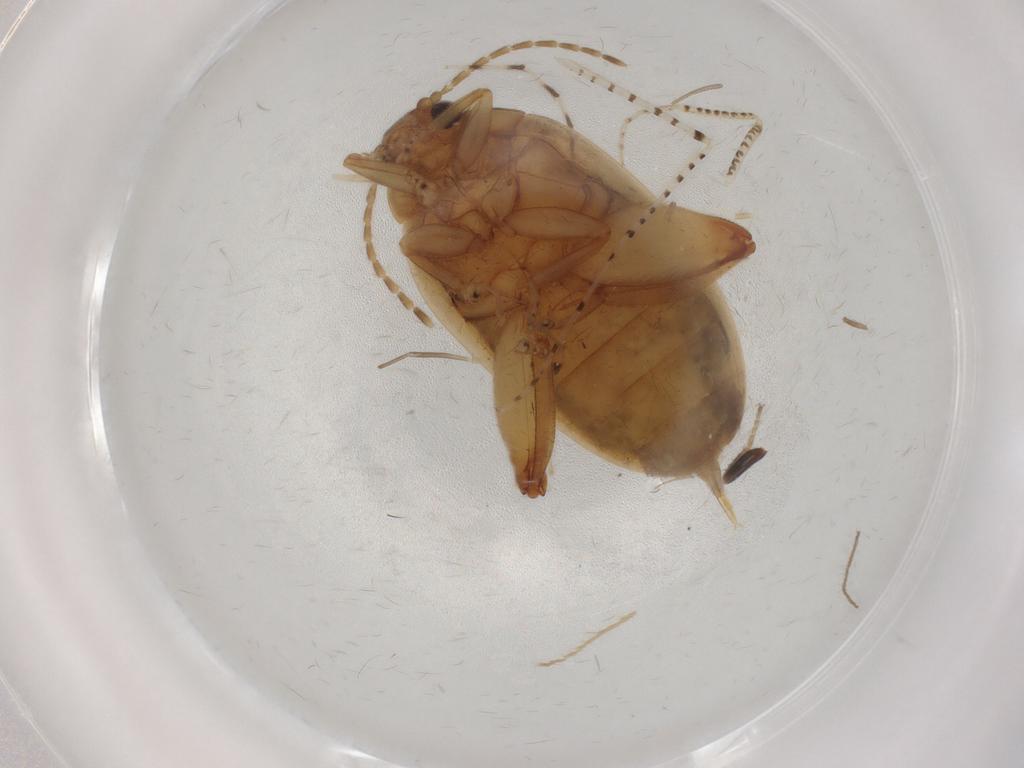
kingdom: Animalia
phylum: Arthropoda
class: Insecta
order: Coleoptera
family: Scirtidae
